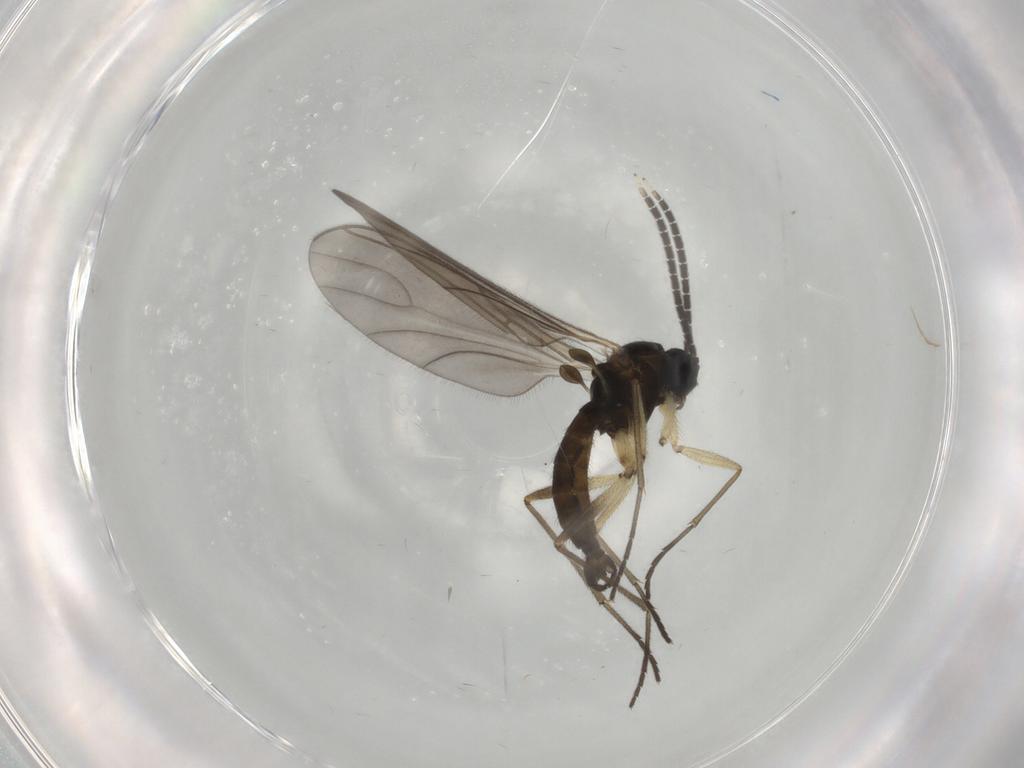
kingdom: Animalia
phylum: Arthropoda
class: Insecta
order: Diptera
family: Sciaridae
